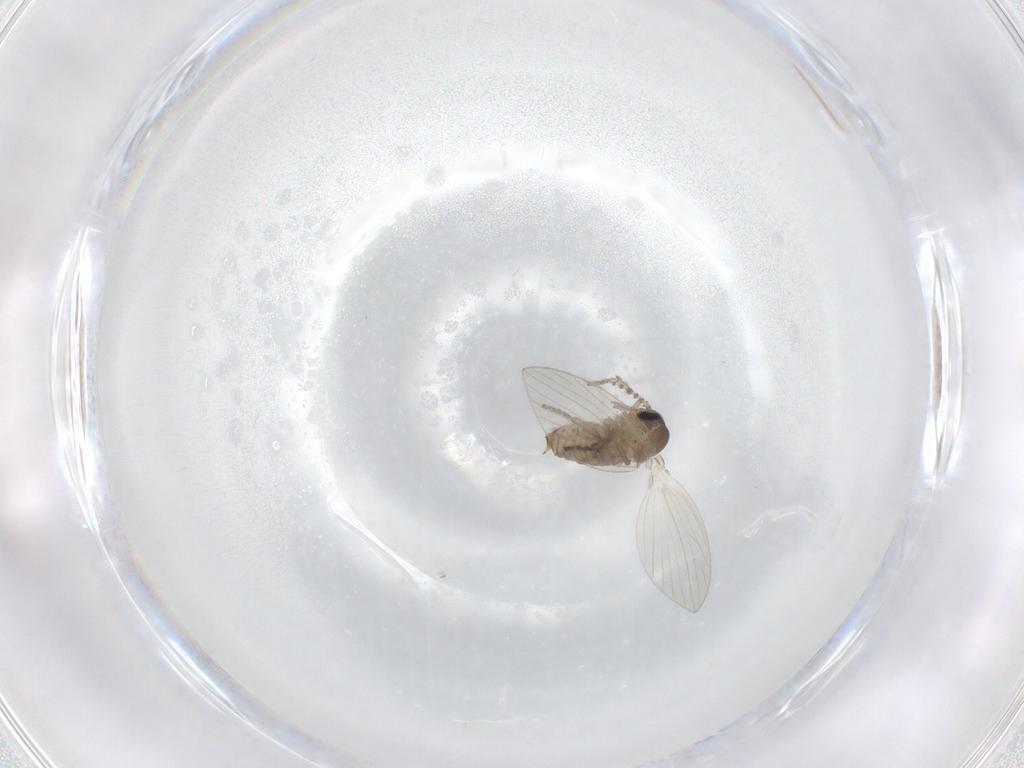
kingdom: Animalia
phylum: Arthropoda
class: Insecta
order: Diptera
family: Psychodidae
